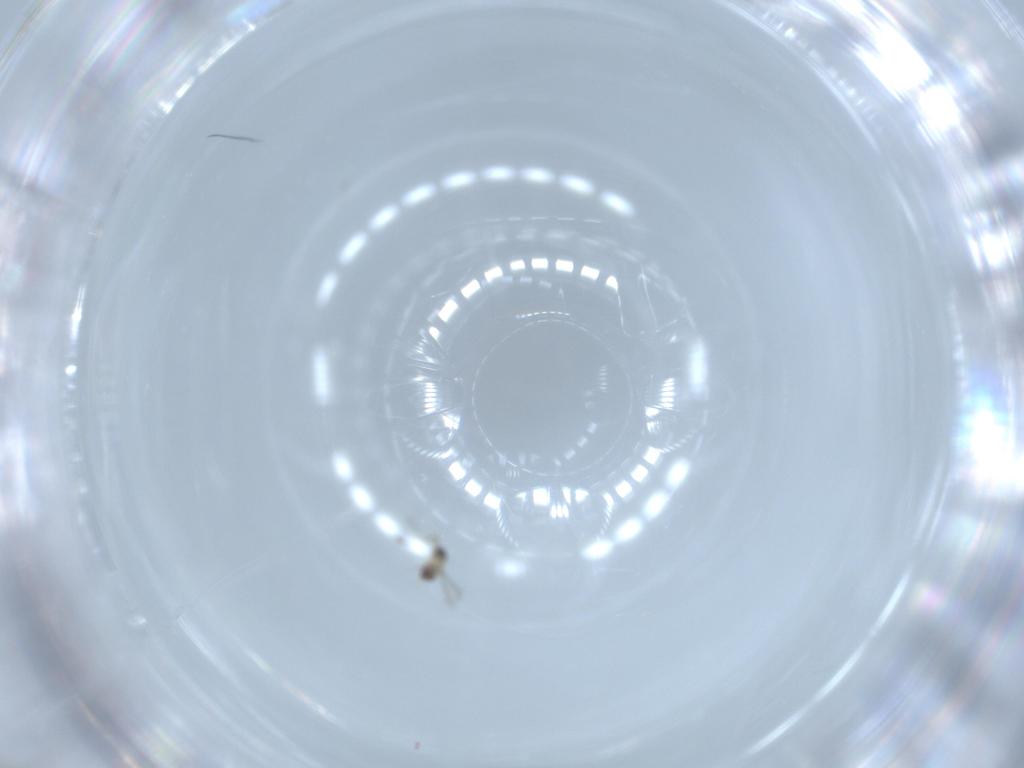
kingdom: Animalia
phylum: Arthropoda
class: Insecta
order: Hymenoptera
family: Mymaridae
